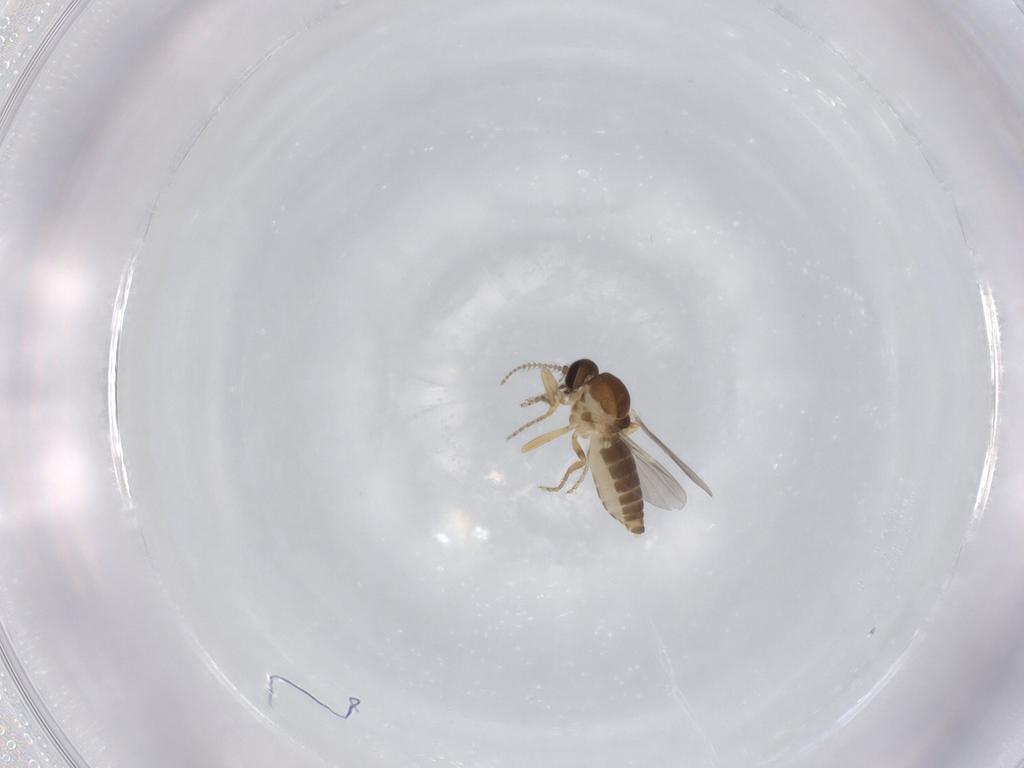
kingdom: Animalia
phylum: Arthropoda
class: Insecta
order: Diptera
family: Ceratopogonidae
